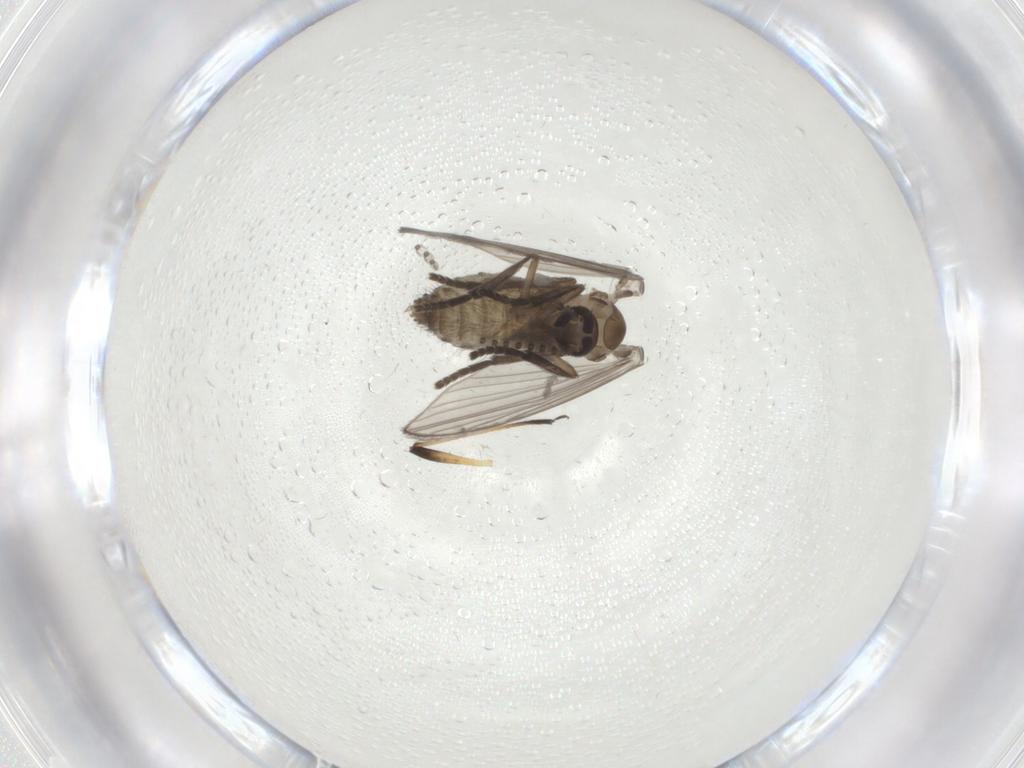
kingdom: Animalia
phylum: Arthropoda
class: Insecta
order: Diptera
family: Psychodidae
